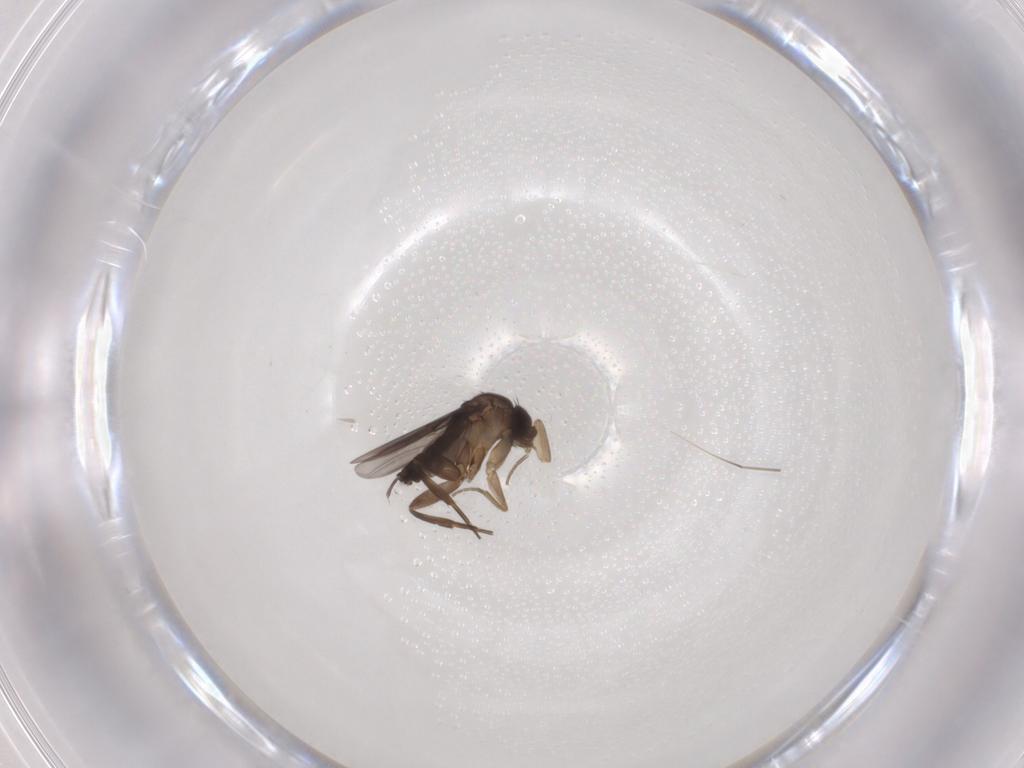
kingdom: Animalia
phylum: Arthropoda
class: Insecta
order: Diptera
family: Phoridae
